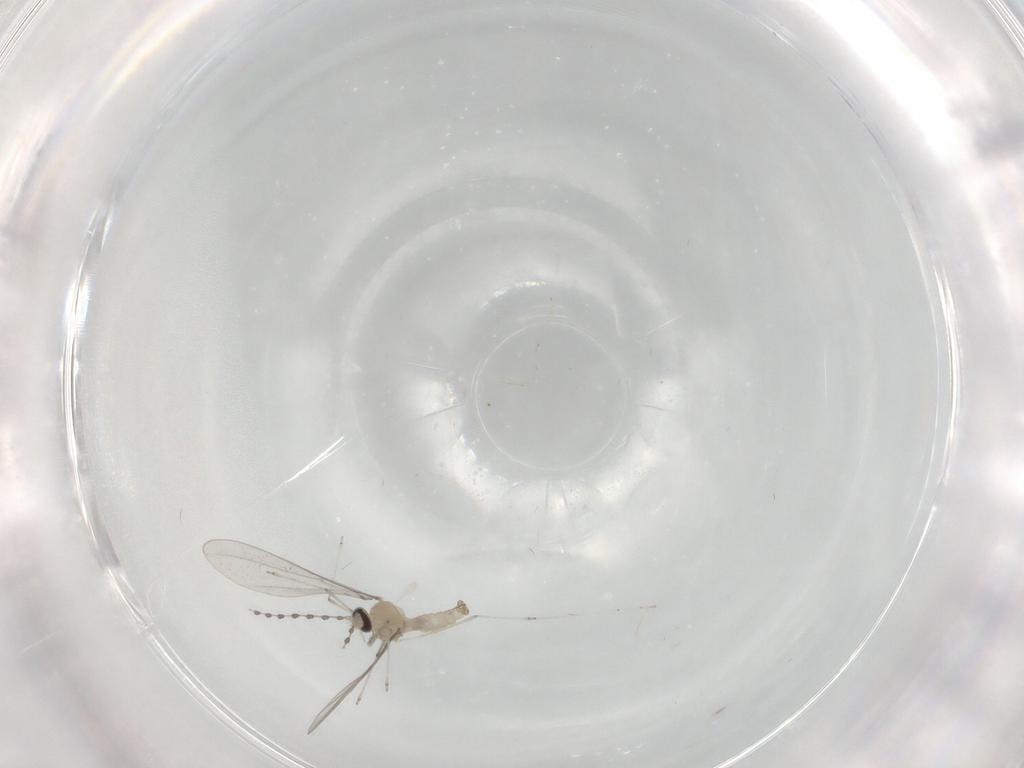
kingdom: Animalia
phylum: Arthropoda
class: Insecta
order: Diptera
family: Cecidomyiidae
